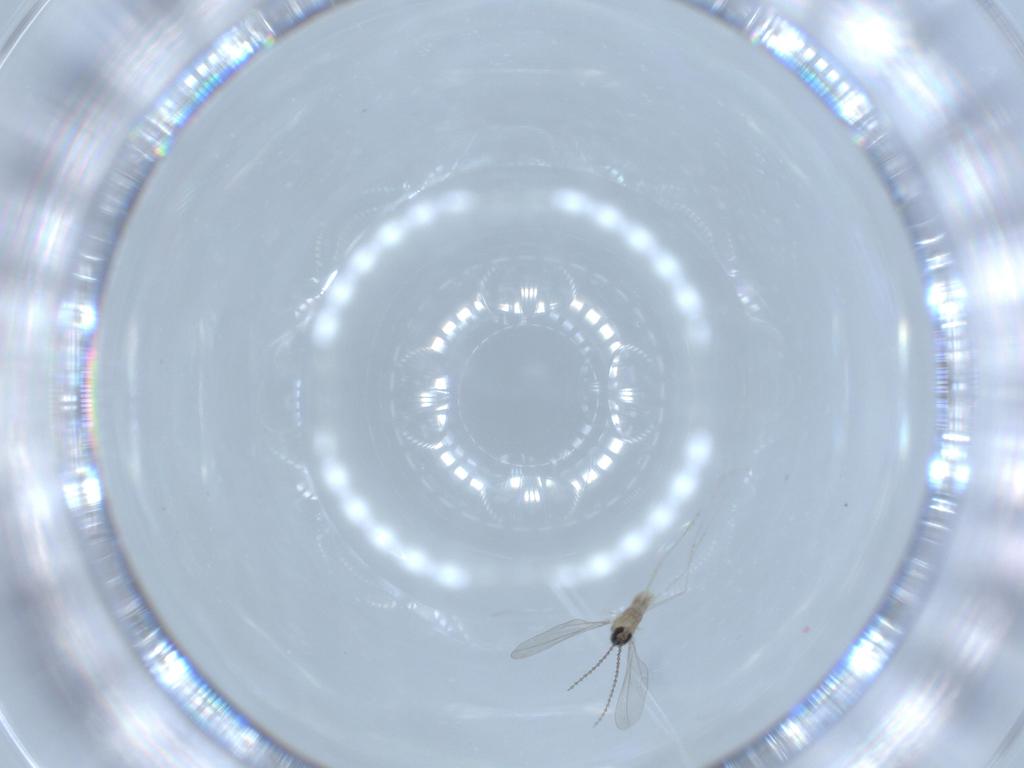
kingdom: Animalia
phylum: Arthropoda
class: Insecta
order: Diptera
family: Cecidomyiidae
